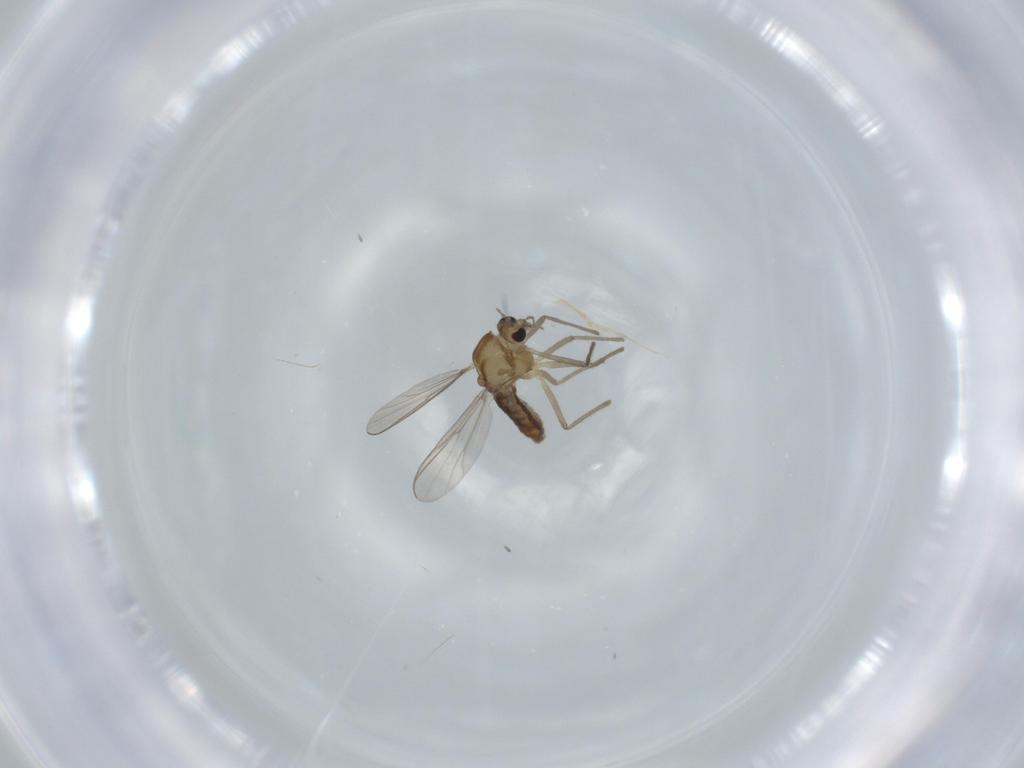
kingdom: Animalia
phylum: Arthropoda
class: Insecta
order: Diptera
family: Chironomidae
